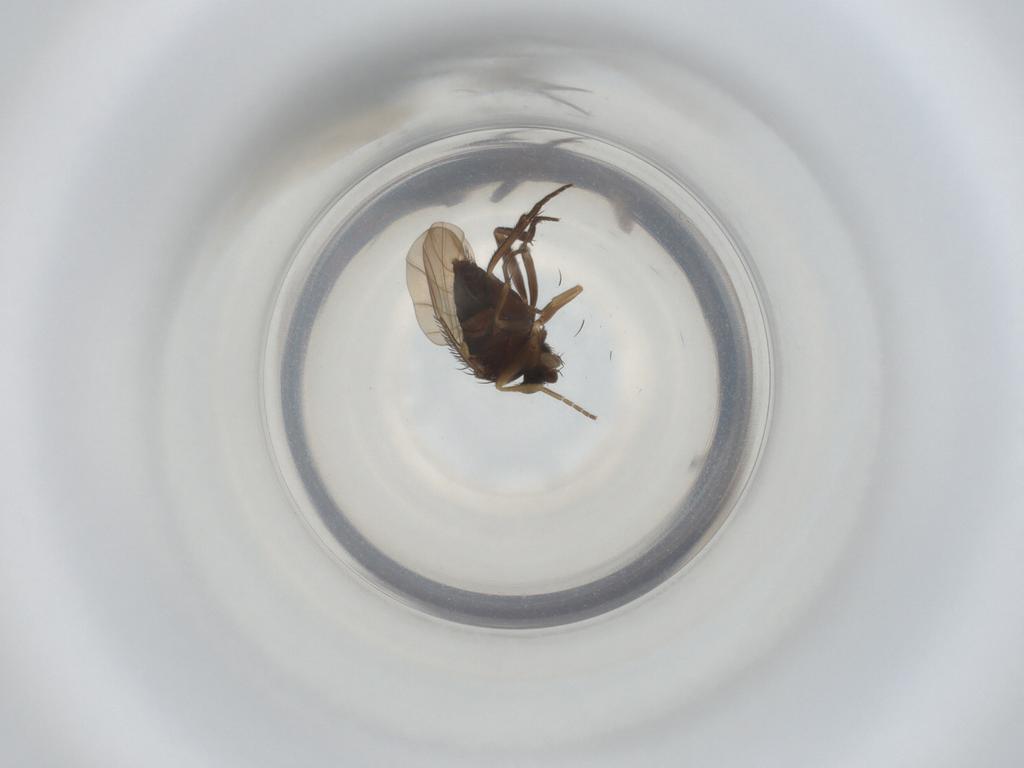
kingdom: Animalia
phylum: Arthropoda
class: Insecta
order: Diptera
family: Phoridae
